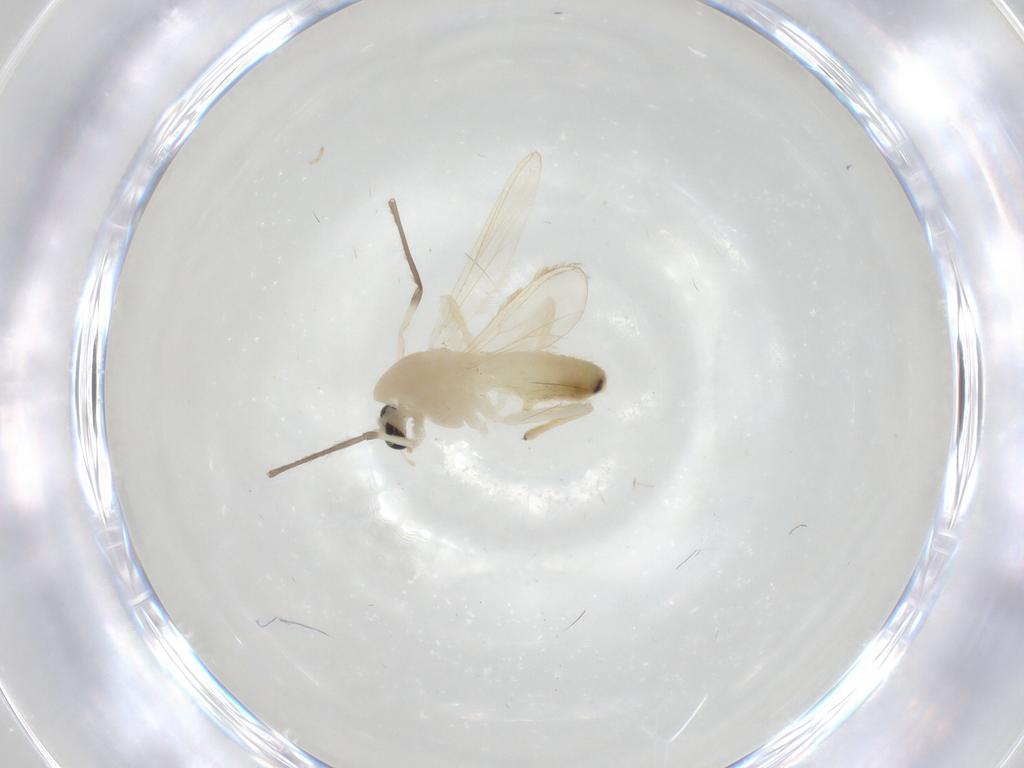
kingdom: Animalia
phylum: Arthropoda
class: Insecta
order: Diptera
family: Chironomidae
